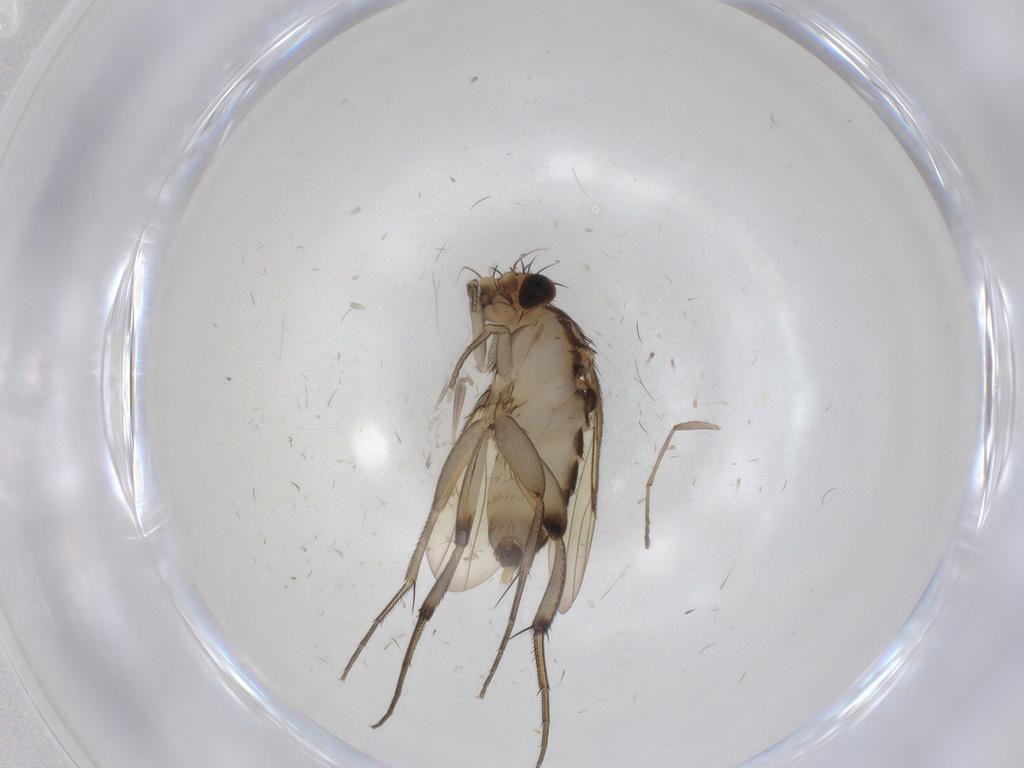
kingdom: Animalia
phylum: Arthropoda
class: Insecta
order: Diptera
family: Phoridae
